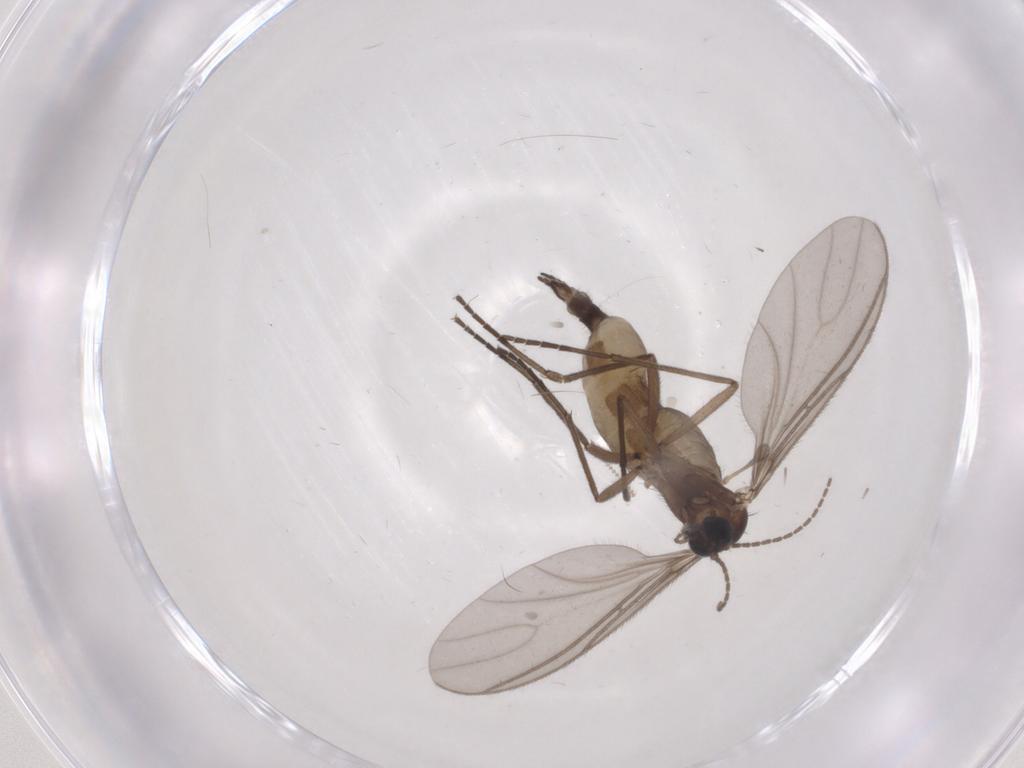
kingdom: Animalia
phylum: Arthropoda
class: Insecta
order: Diptera
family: Sciaridae
